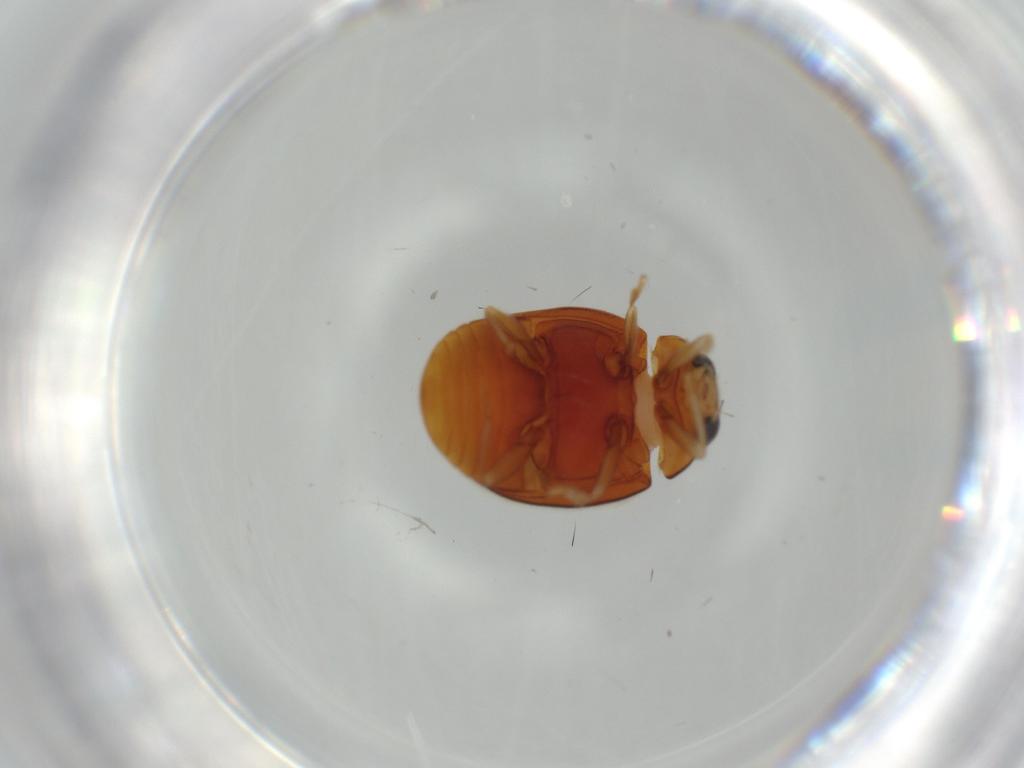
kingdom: Animalia
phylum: Arthropoda
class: Insecta
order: Coleoptera
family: Coccinellidae
